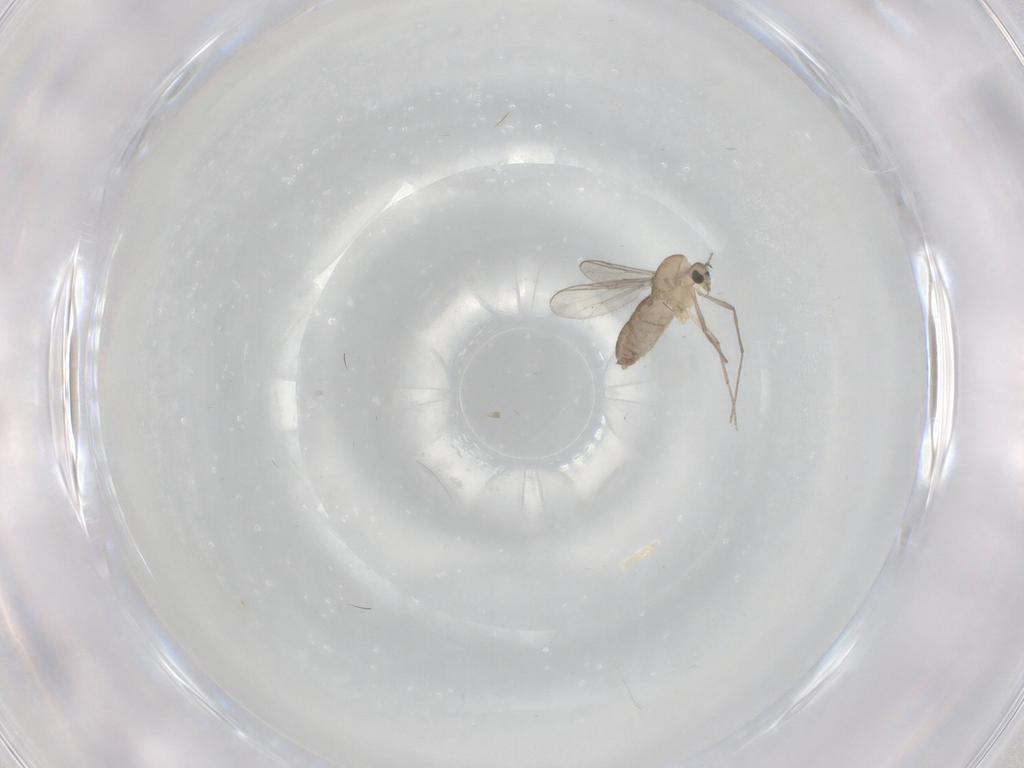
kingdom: Animalia
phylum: Arthropoda
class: Insecta
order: Diptera
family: Chironomidae
